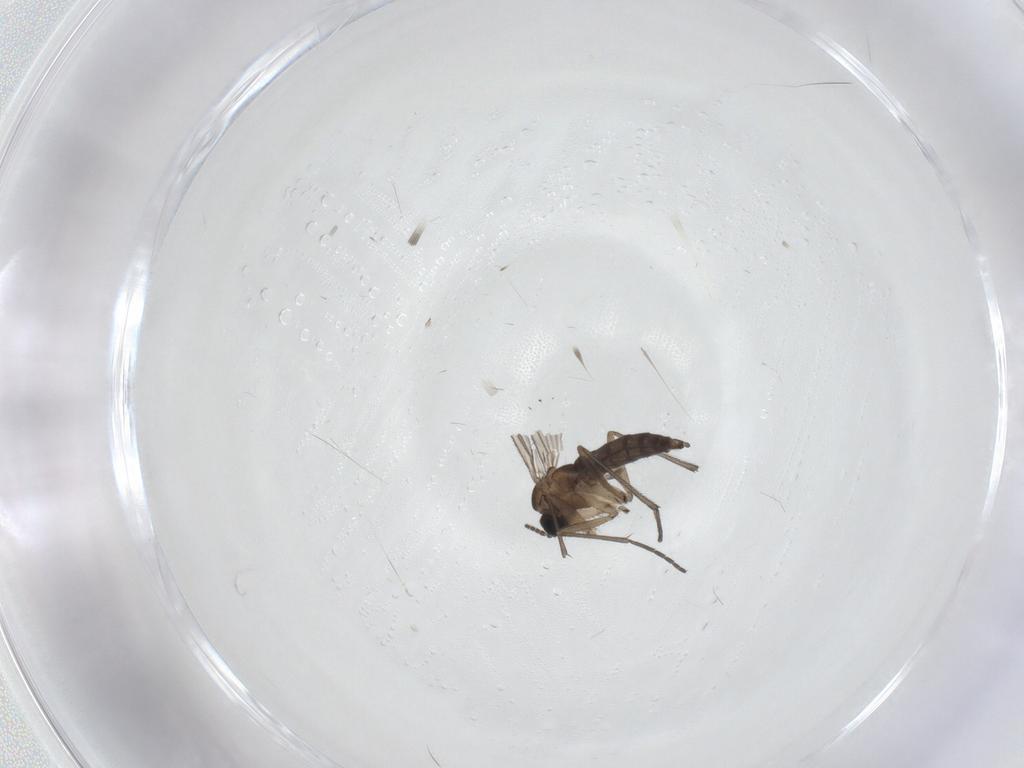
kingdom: Animalia
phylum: Arthropoda
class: Insecta
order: Diptera
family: Sciaridae
